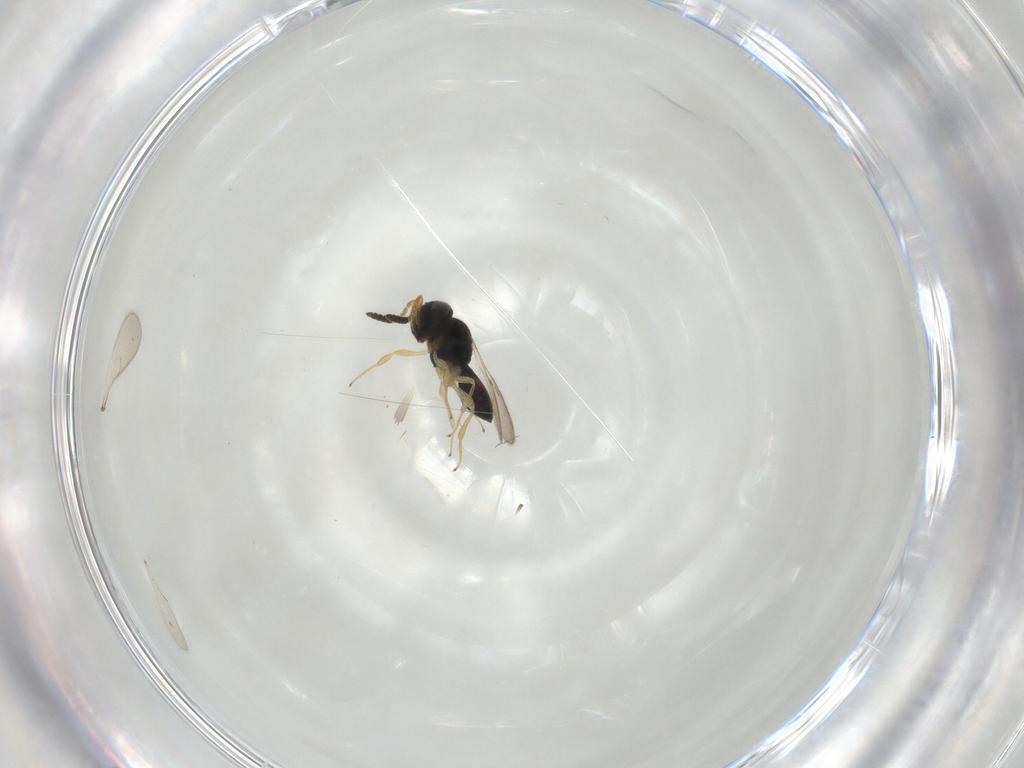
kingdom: Animalia
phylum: Arthropoda
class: Insecta
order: Hymenoptera
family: Scelionidae
